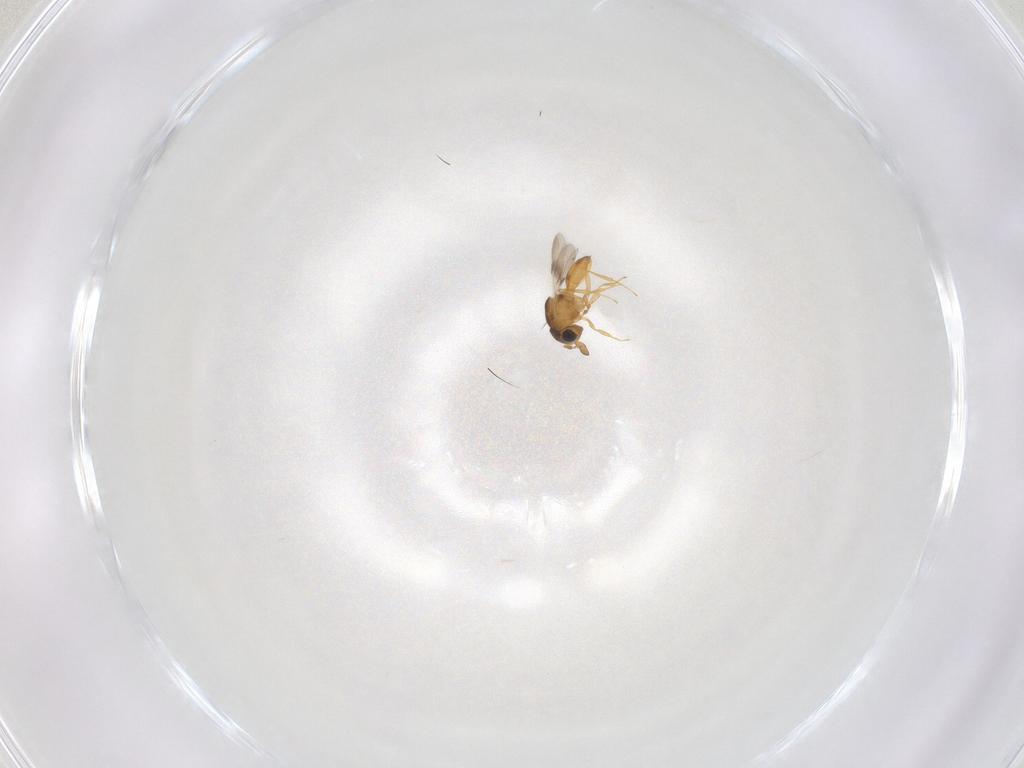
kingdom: Animalia
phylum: Arthropoda
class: Insecta
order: Hymenoptera
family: Scelionidae
